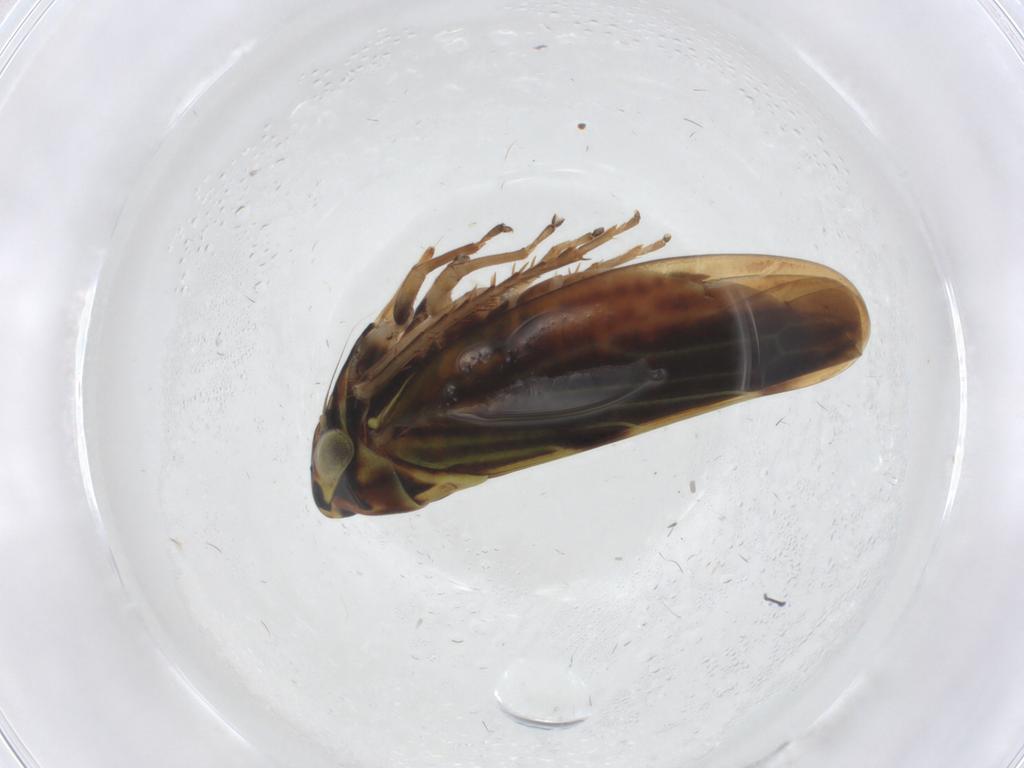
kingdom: Animalia
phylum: Arthropoda
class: Insecta
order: Hemiptera
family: Cicadellidae
